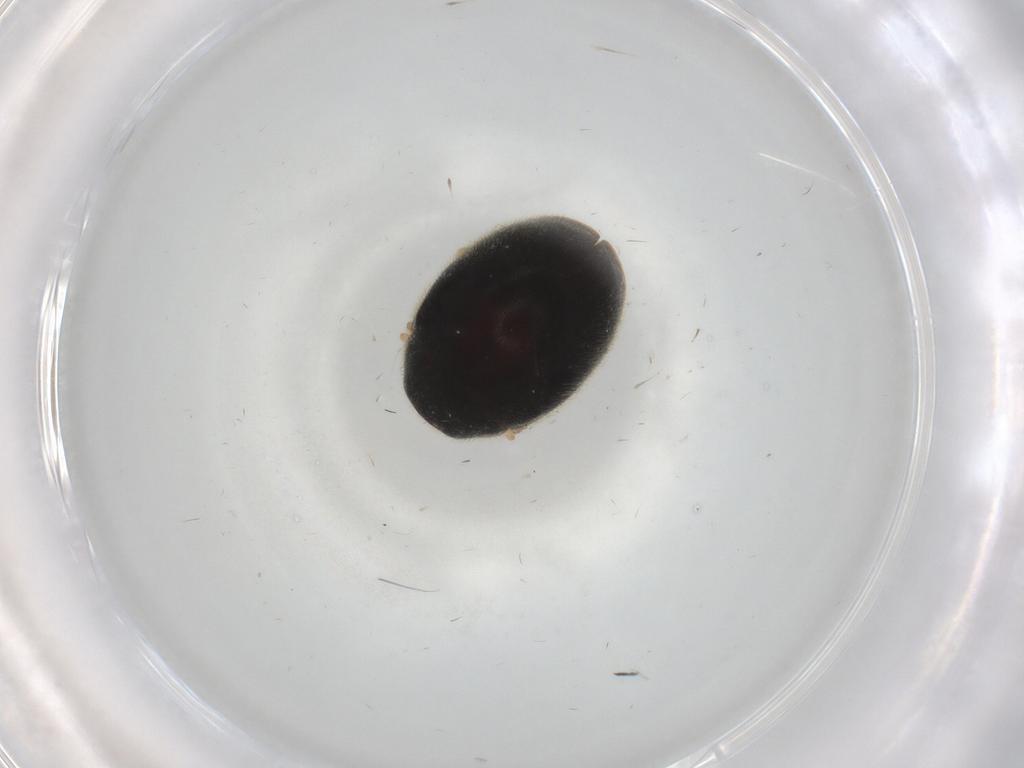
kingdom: Animalia
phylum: Arthropoda
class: Insecta
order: Coleoptera
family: Coccinellidae
